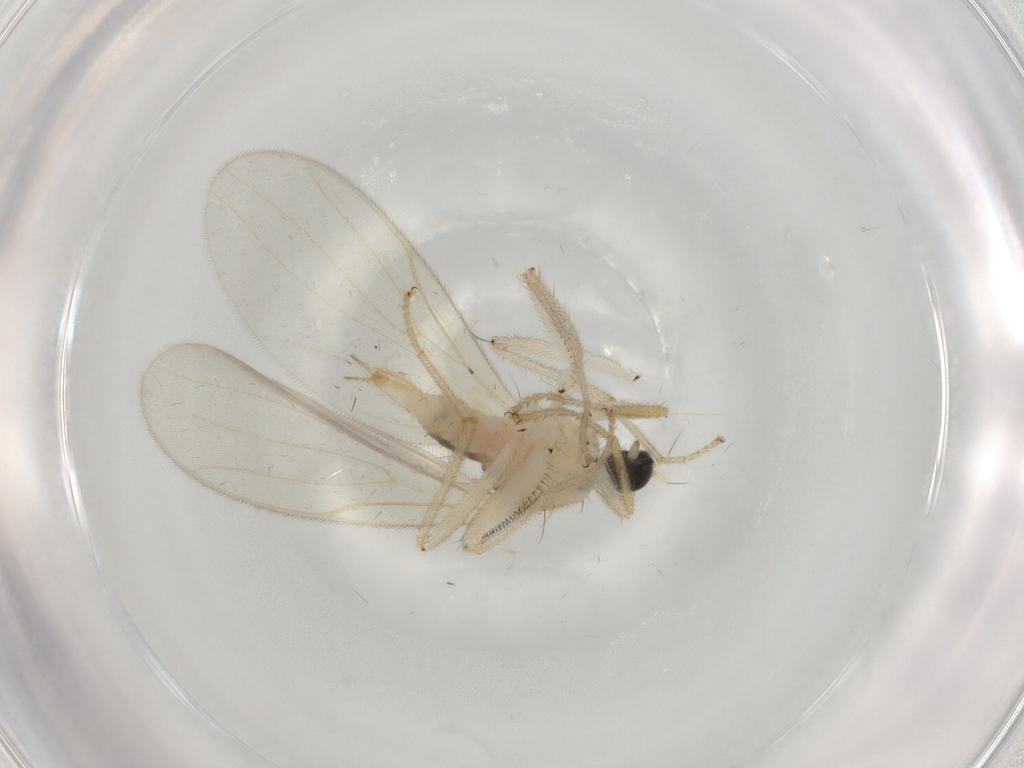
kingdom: Animalia
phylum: Arthropoda
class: Insecta
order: Diptera
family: Hybotidae
